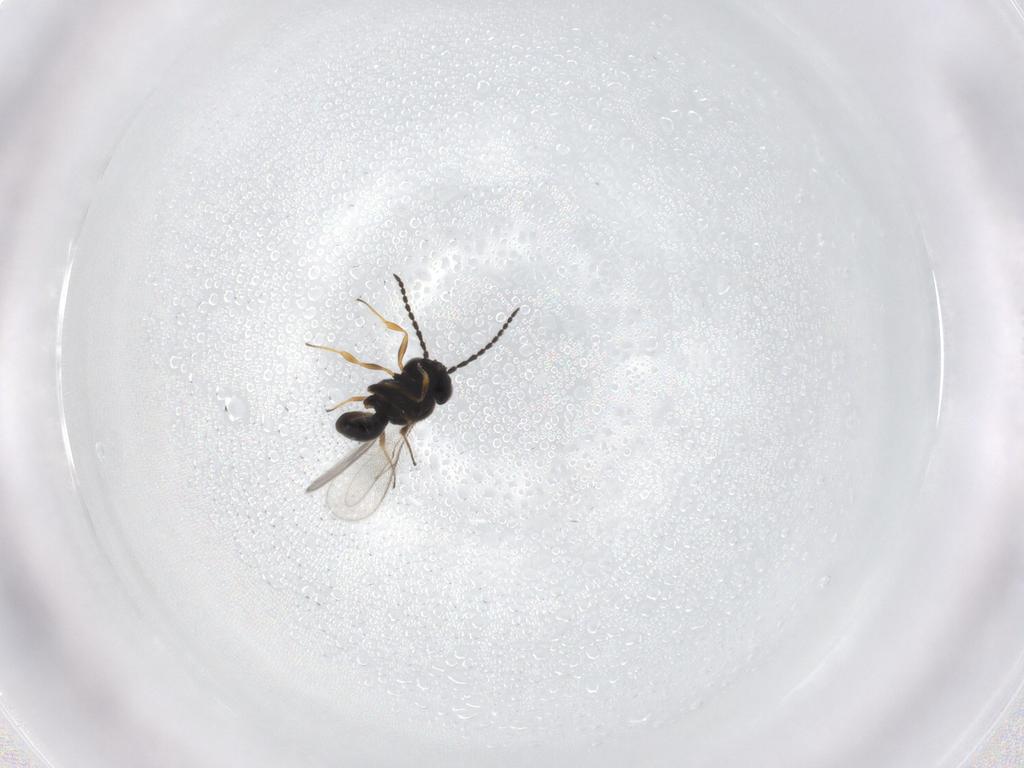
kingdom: Animalia
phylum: Arthropoda
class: Insecta
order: Hymenoptera
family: Scelionidae
